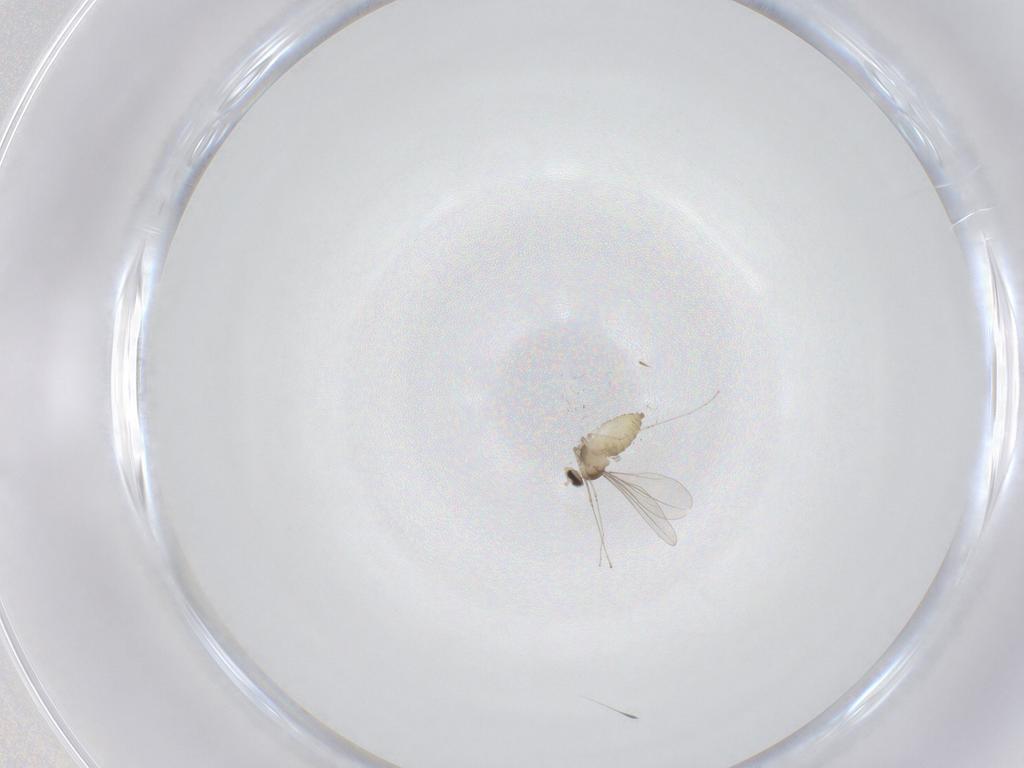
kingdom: Animalia
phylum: Arthropoda
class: Insecta
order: Diptera
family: Cecidomyiidae
